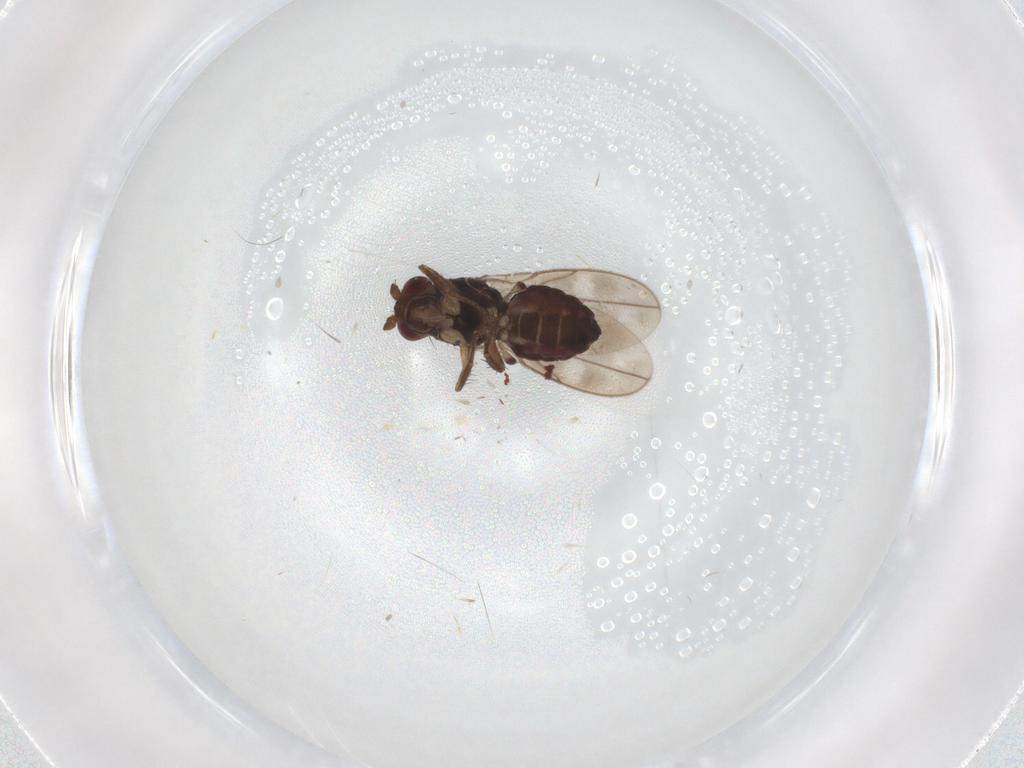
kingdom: Animalia
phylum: Arthropoda
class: Insecta
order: Diptera
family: Sphaeroceridae
